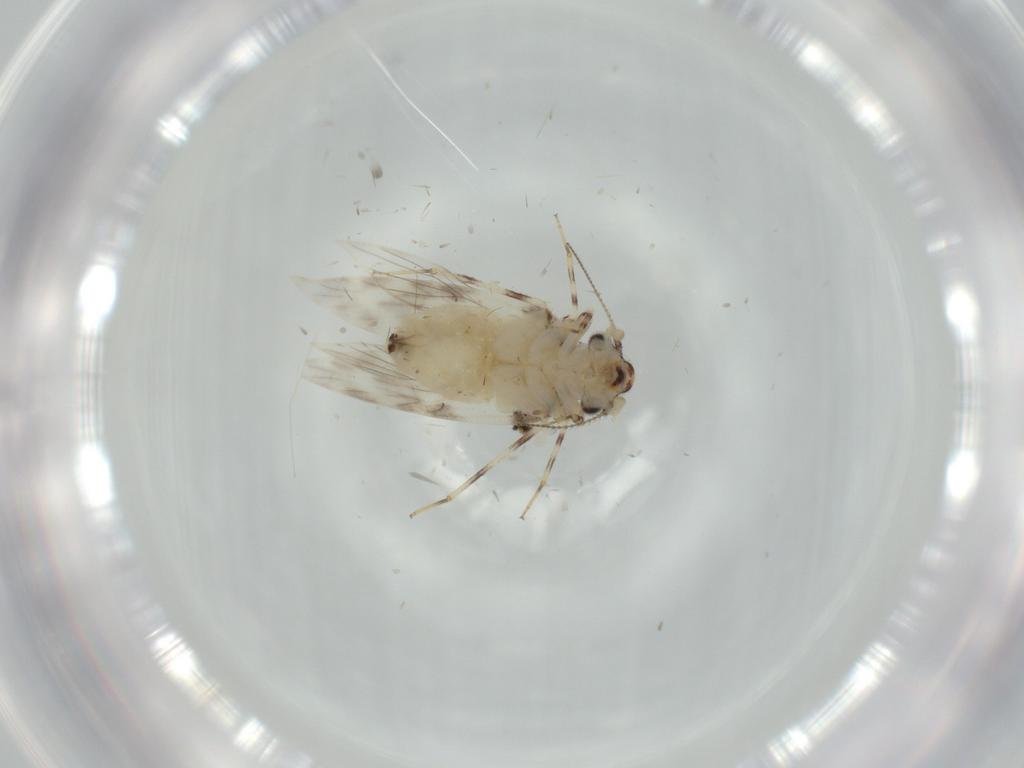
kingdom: Animalia
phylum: Arthropoda
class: Insecta
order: Psocodea
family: Lepidopsocidae
